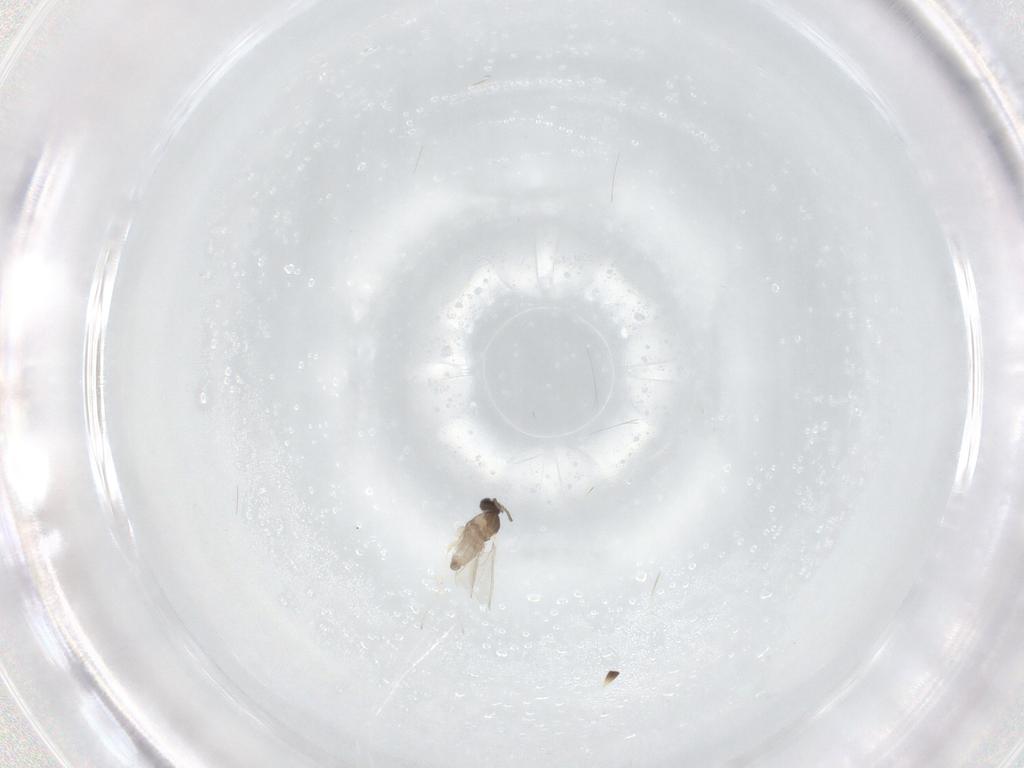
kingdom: Animalia
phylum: Arthropoda
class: Insecta
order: Diptera
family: Cecidomyiidae
